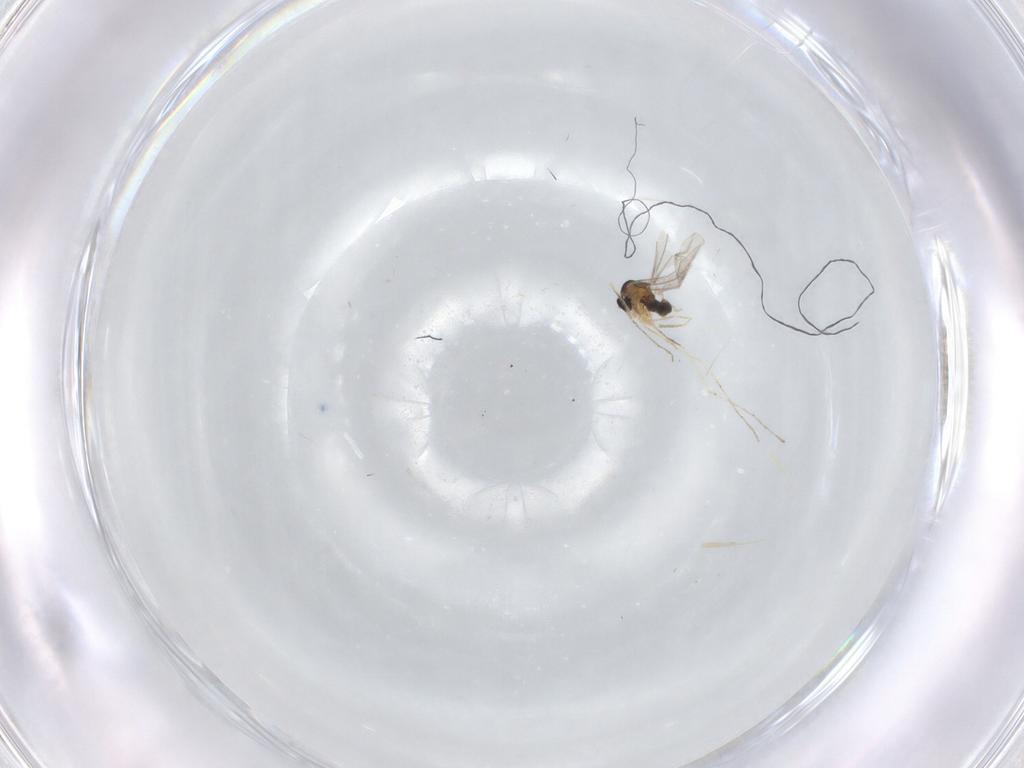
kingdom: Animalia
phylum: Arthropoda
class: Insecta
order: Diptera
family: Cecidomyiidae
